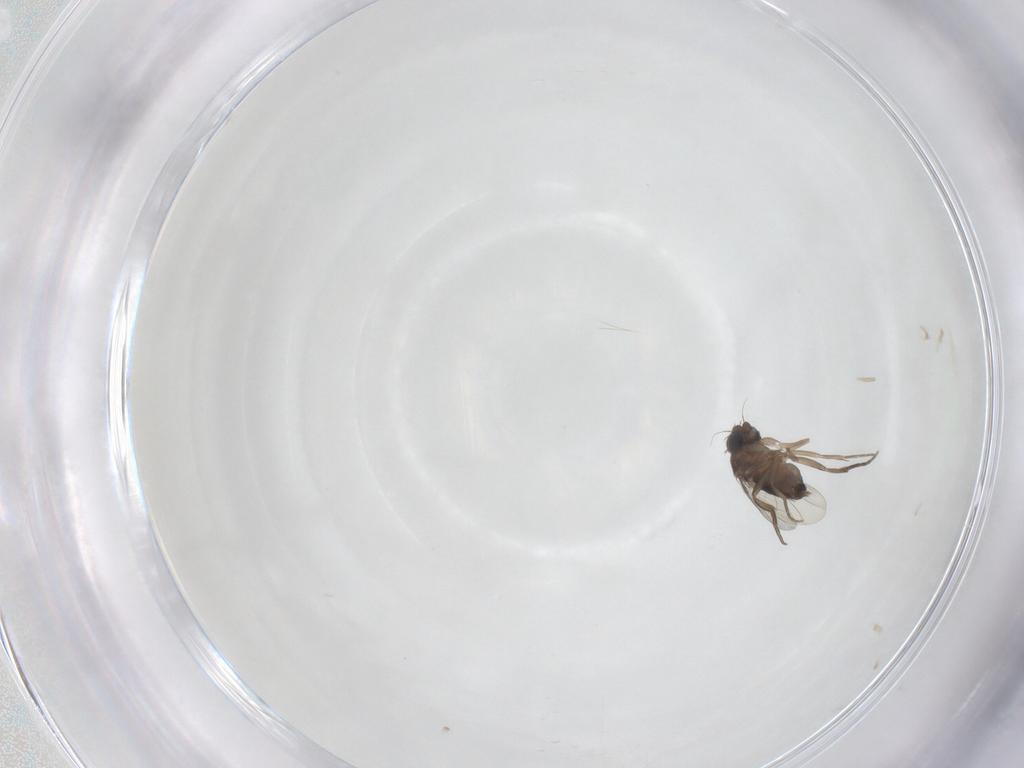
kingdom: Animalia
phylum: Arthropoda
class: Insecta
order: Diptera
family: Phoridae
